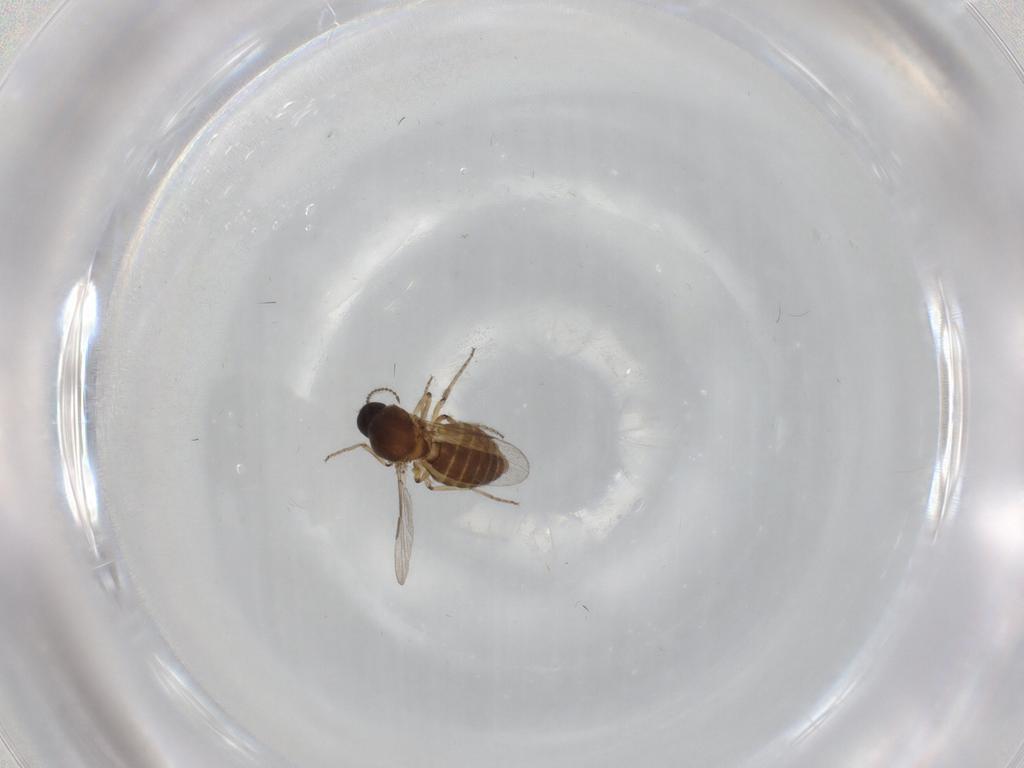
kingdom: Animalia
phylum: Arthropoda
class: Insecta
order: Diptera
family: Ceratopogonidae
